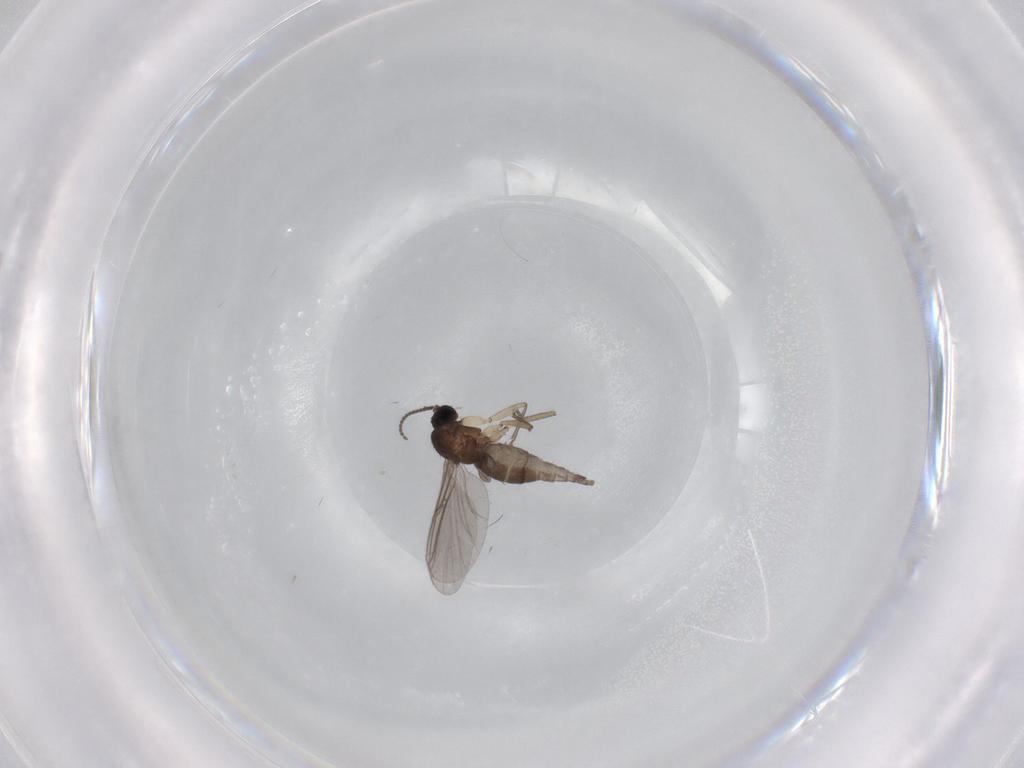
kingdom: Animalia
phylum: Arthropoda
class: Insecta
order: Diptera
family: Sciaridae
